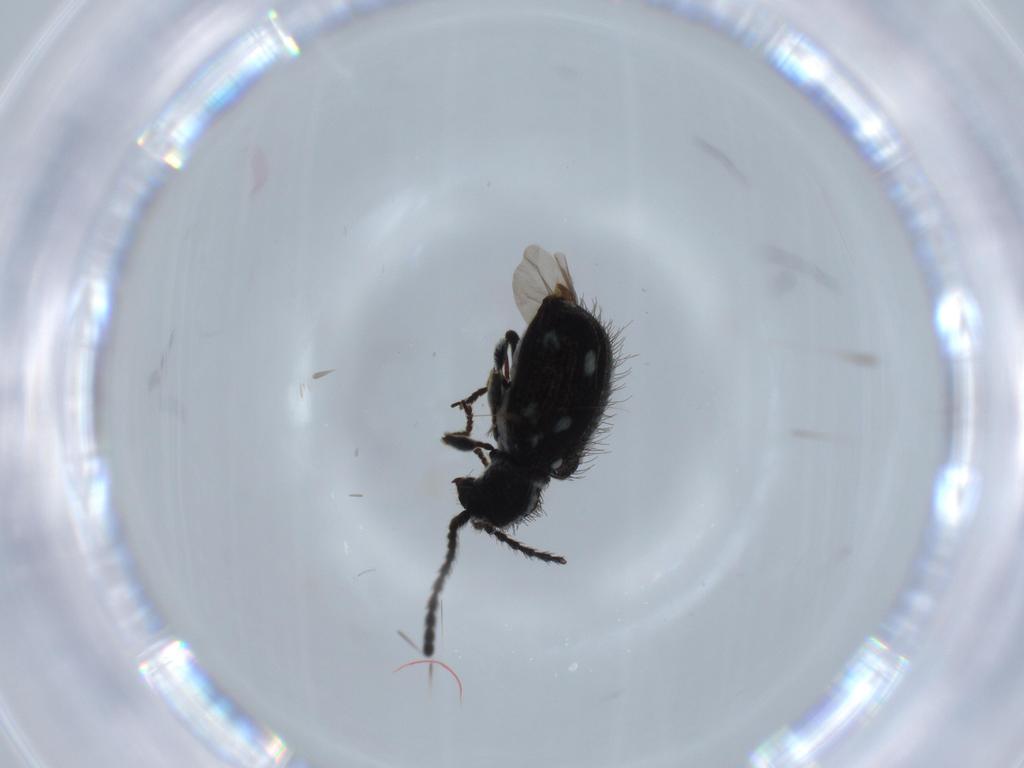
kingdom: Animalia
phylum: Arthropoda
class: Insecta
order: Coleoptera
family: Chrysomelidae
